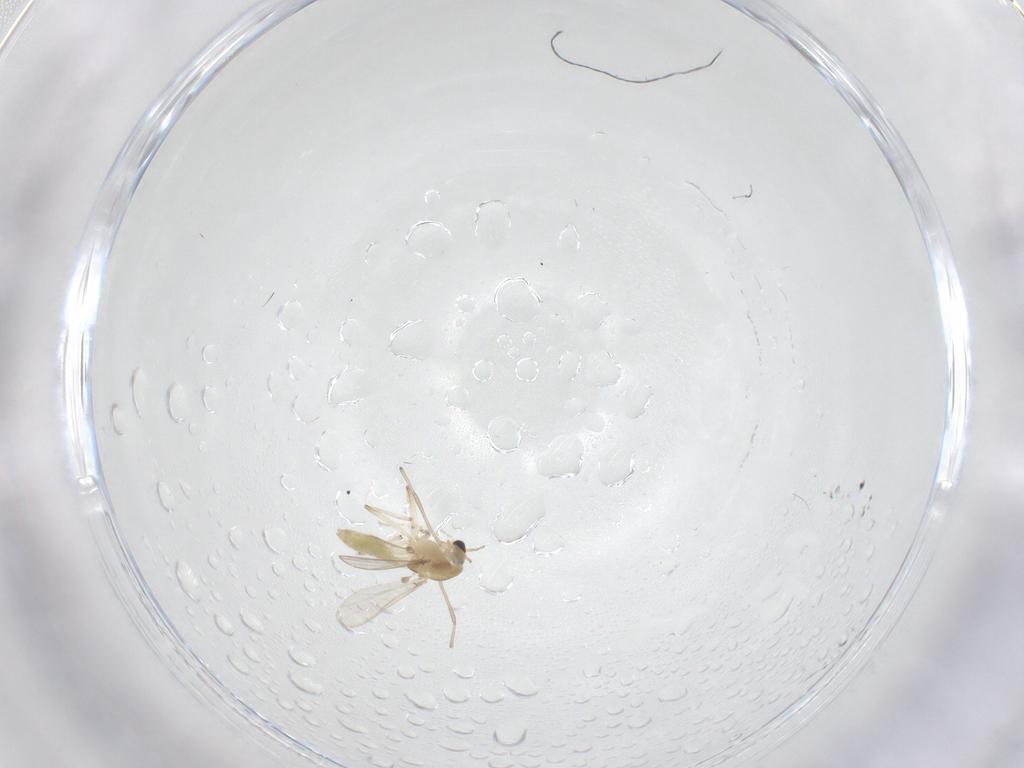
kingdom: Animalia
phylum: Arthropoda
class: Insecta
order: Diptera
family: Chironomidae
